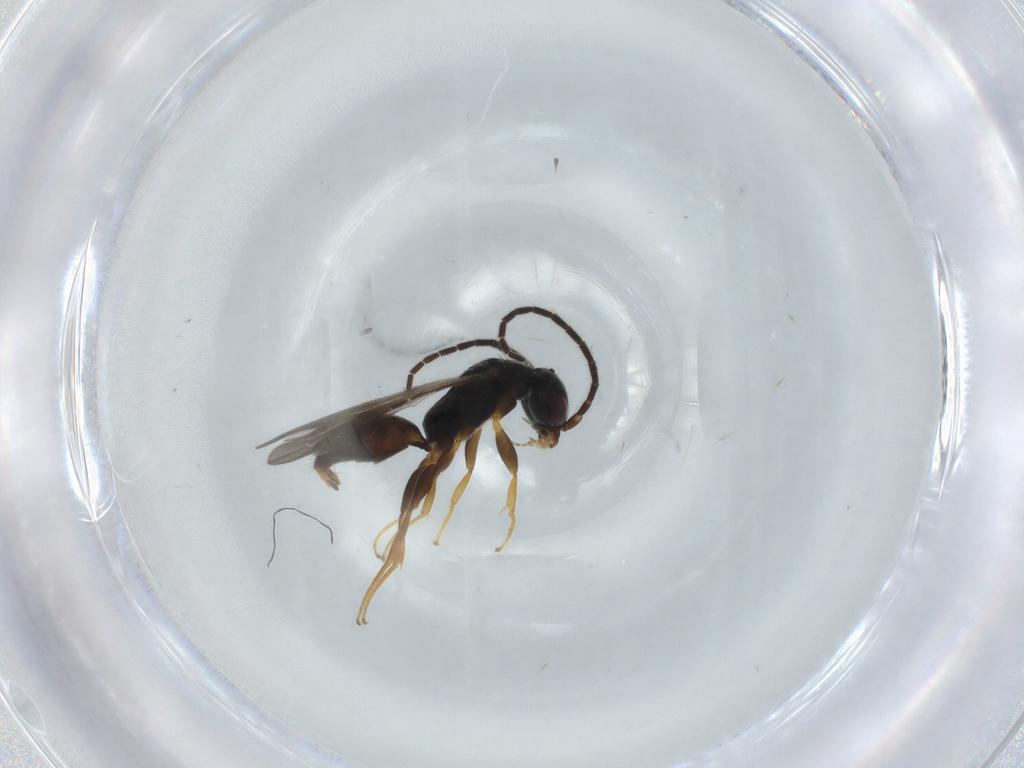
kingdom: Animalia
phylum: Arthropoda
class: Insecta
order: Hymenoptera
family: Bethylidae
